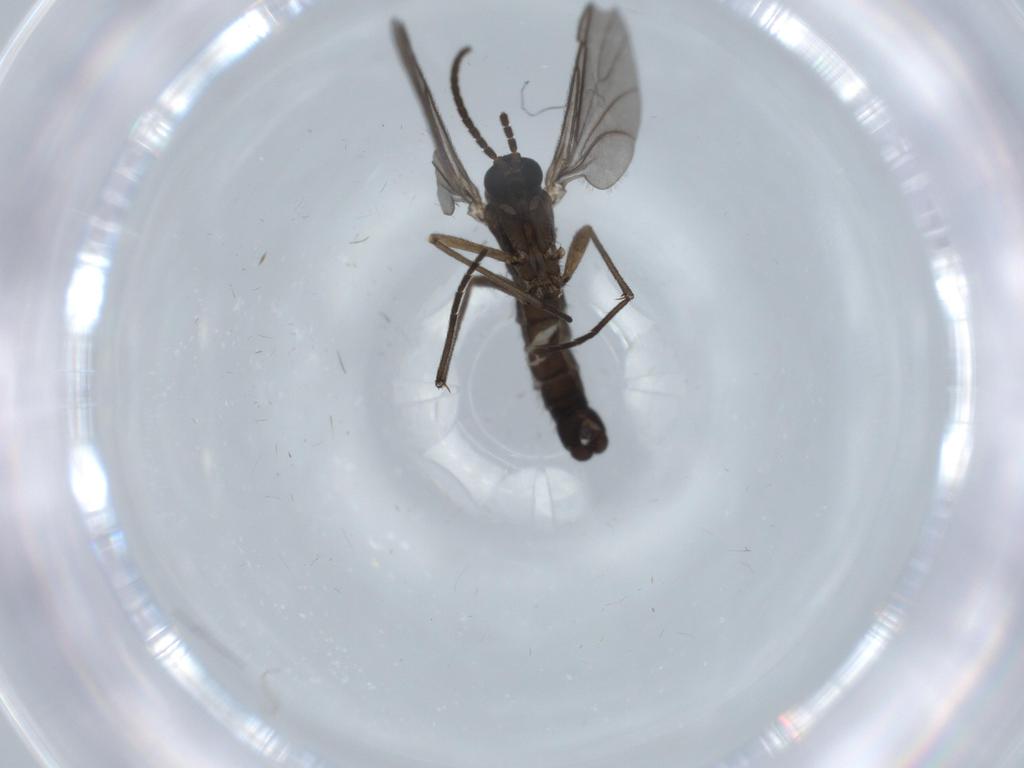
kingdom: Animalia
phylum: Arthropoda
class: Insecta
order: Diptera
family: Sciaridae
